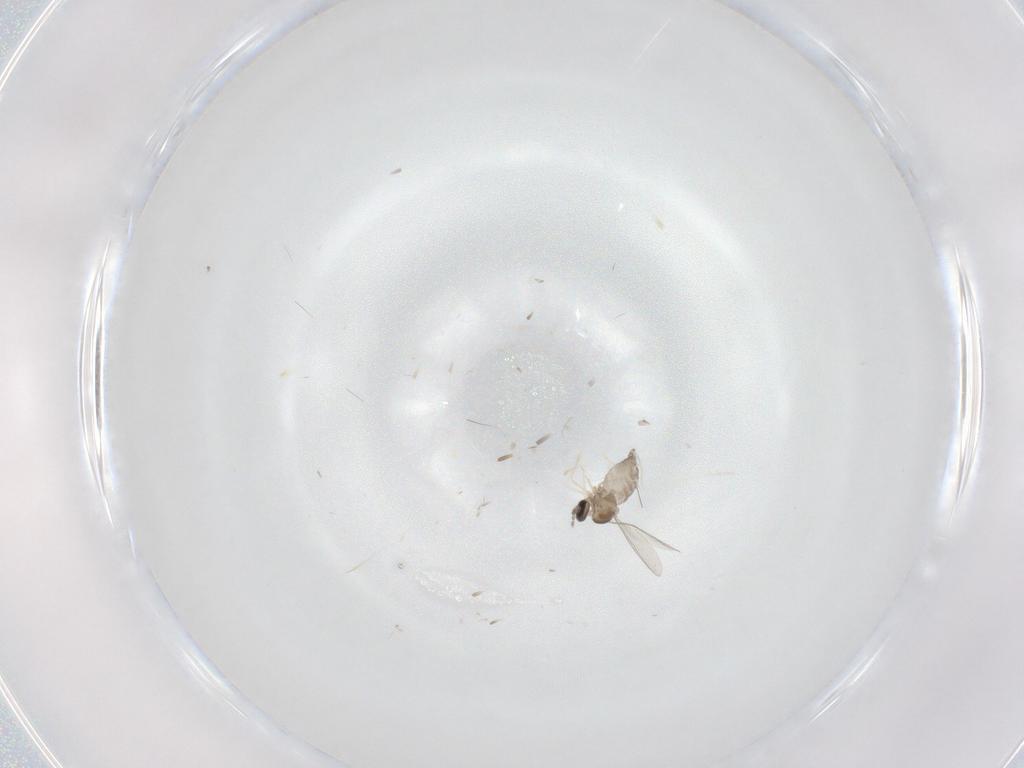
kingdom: Animalia
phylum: Arthropoda
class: Insecta
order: Diptera
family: Cecidomyiidae
